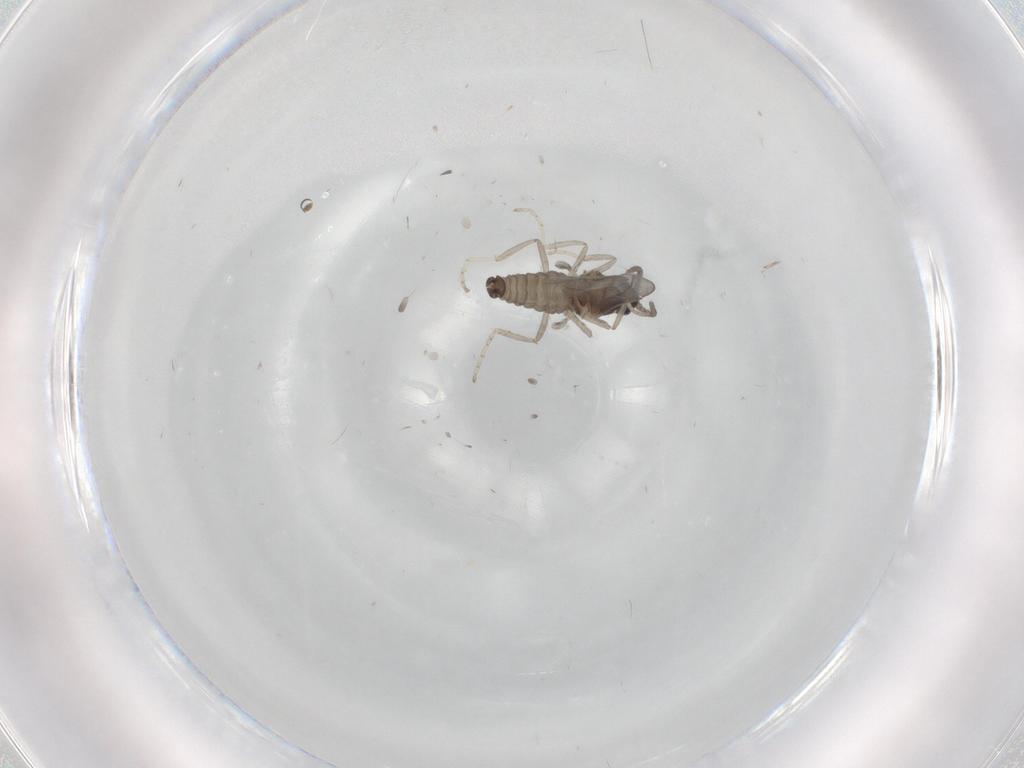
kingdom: Animalia
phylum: Arthropoda
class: Insecta
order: Diptera
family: Cecidomyiidae
